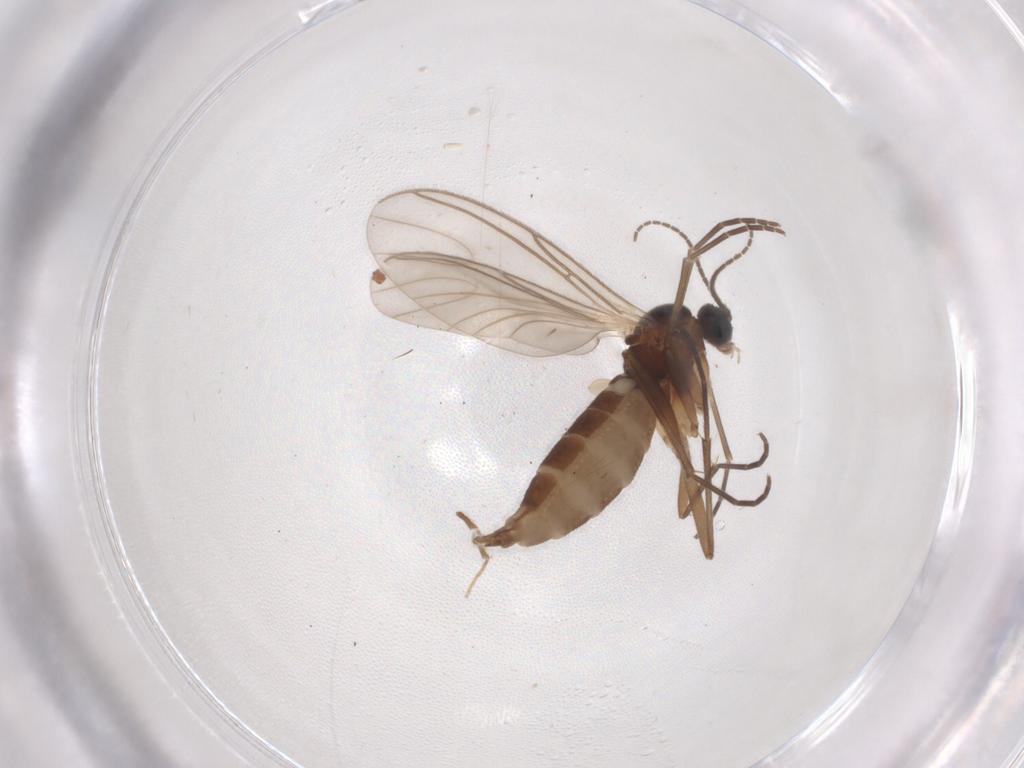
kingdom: Animalia
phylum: Arthropoda
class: Insecta
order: Diptera
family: Sciaridae
